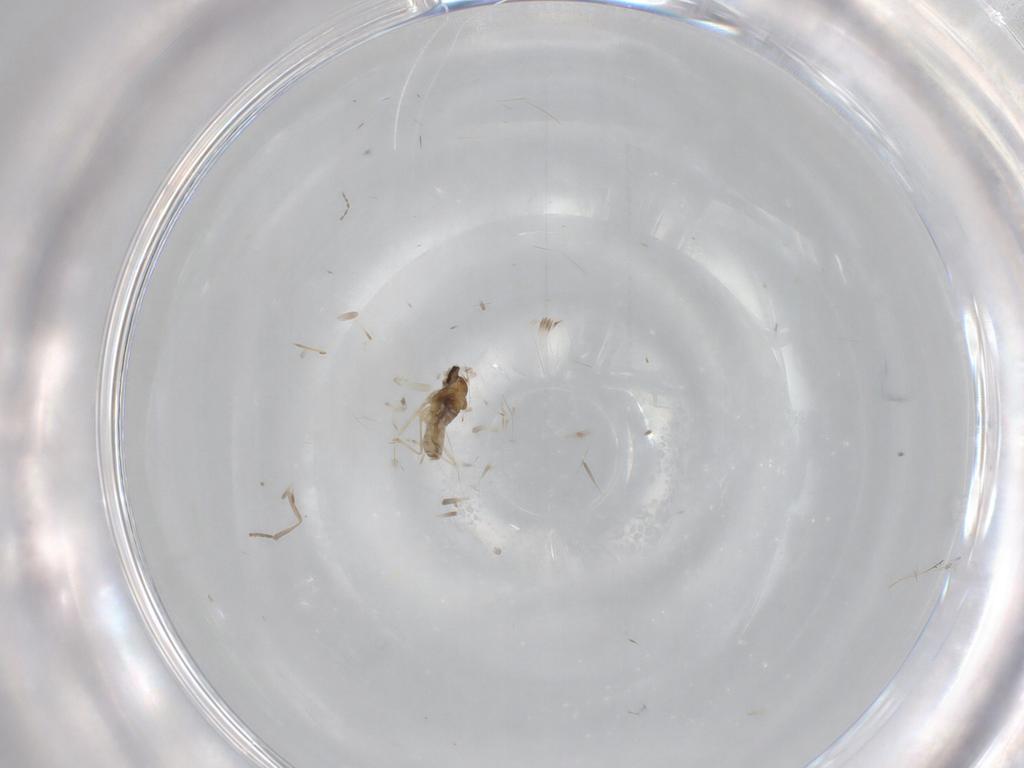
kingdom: Animalia
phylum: Arthropoda
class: Insecta
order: Diptera
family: Cecidomyiidae
